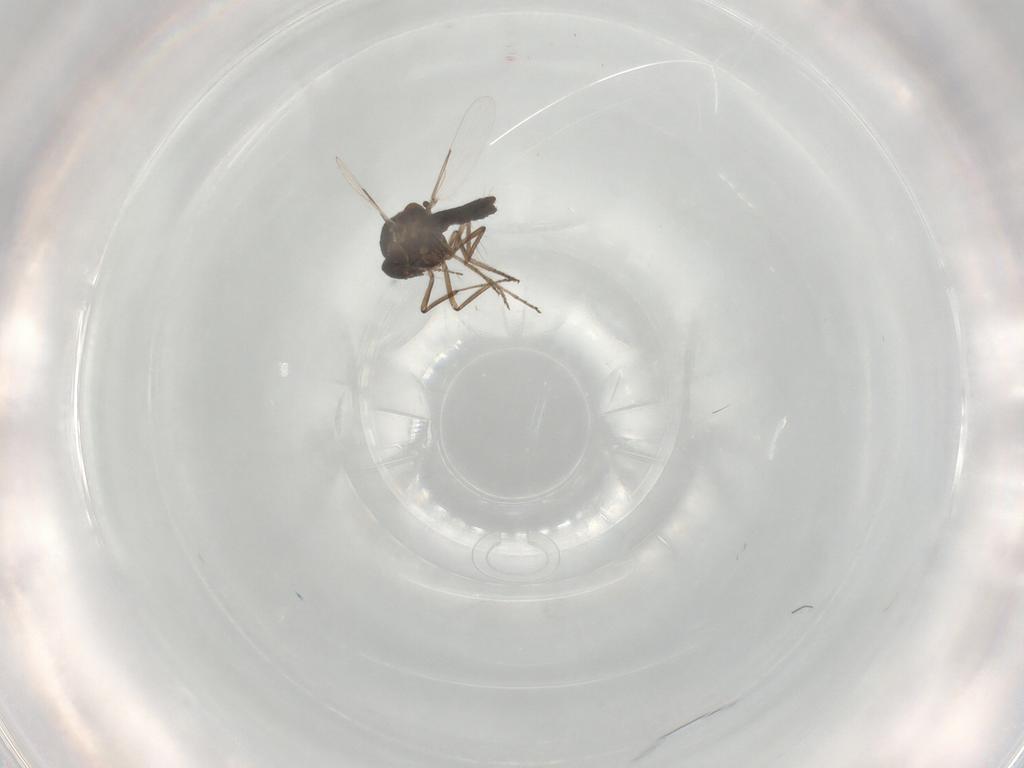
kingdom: Animalia
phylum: Arthropoda
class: Insecta
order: Diptera
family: Ceratopogonidae
